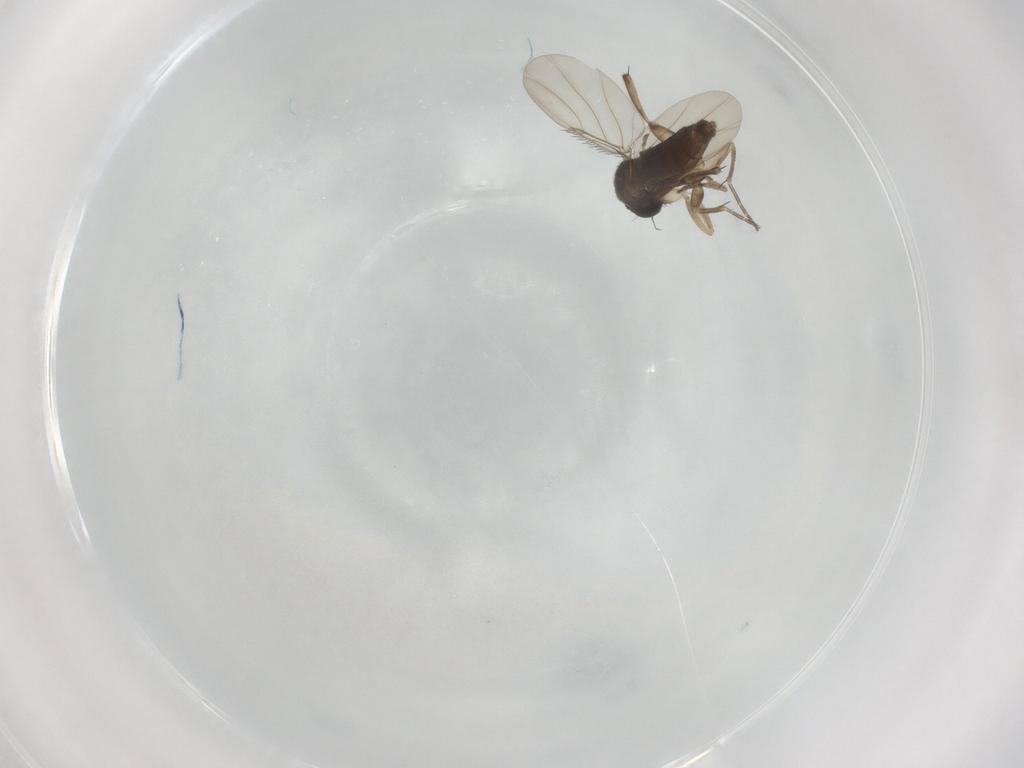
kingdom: Animalia
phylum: Arthropoda
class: Insecta
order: Diptera
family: Phoridae
